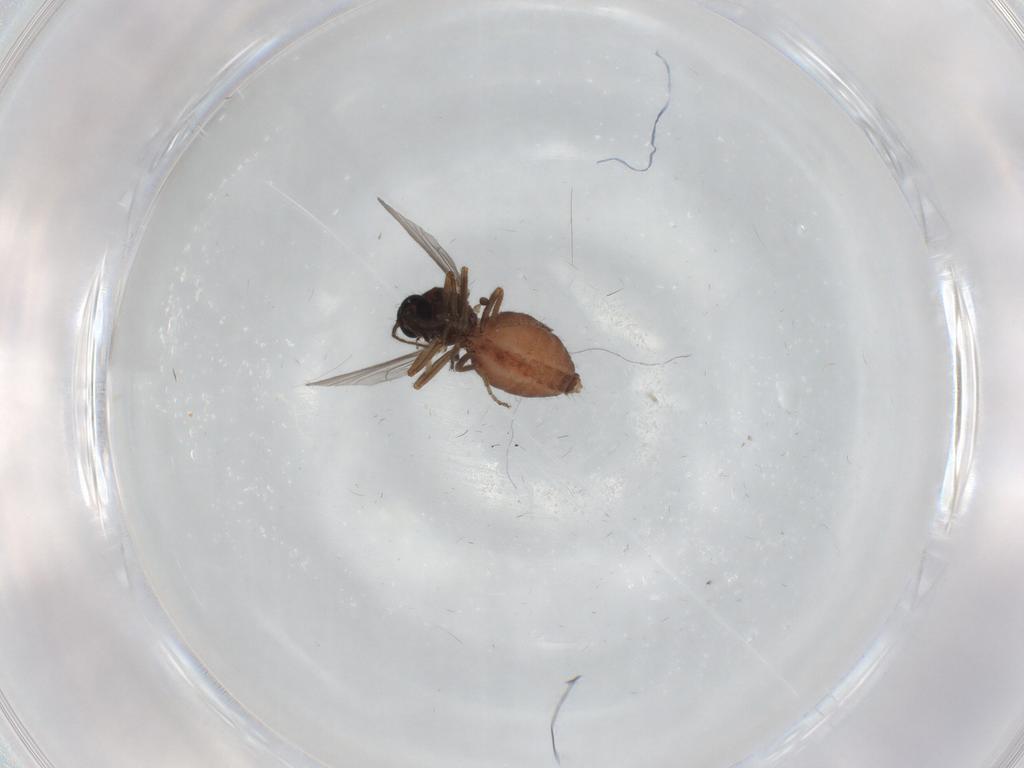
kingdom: Animalia
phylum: Arthropoda
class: Insecta
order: Diptera
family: Ceratopogonidae
